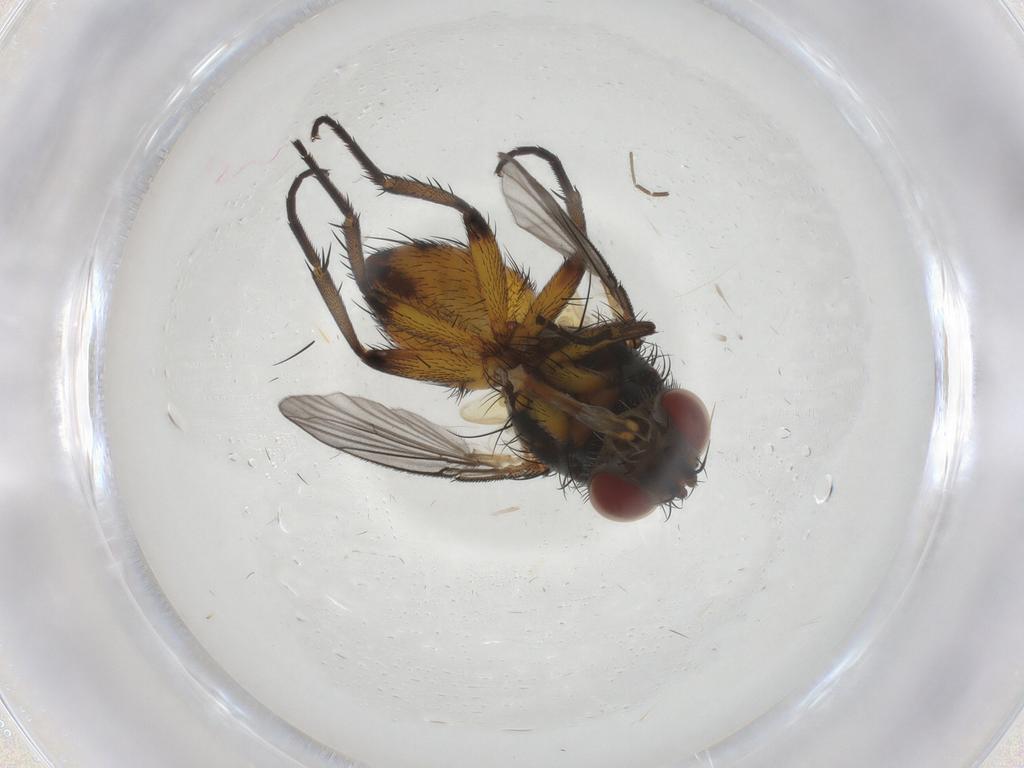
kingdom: Animalia
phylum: Arthropoda
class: Insecta
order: Diptera
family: Tachinidae
